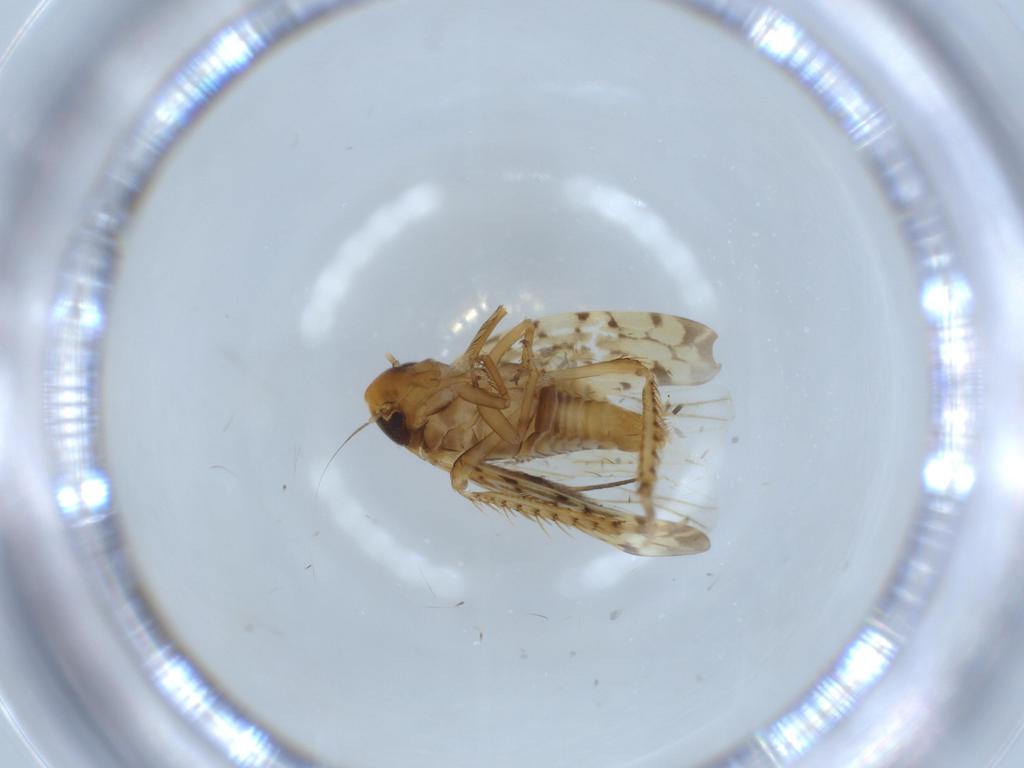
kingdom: Animalia
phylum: Arthropoda
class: Insecta
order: Hemiptera
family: Cicadellidae
